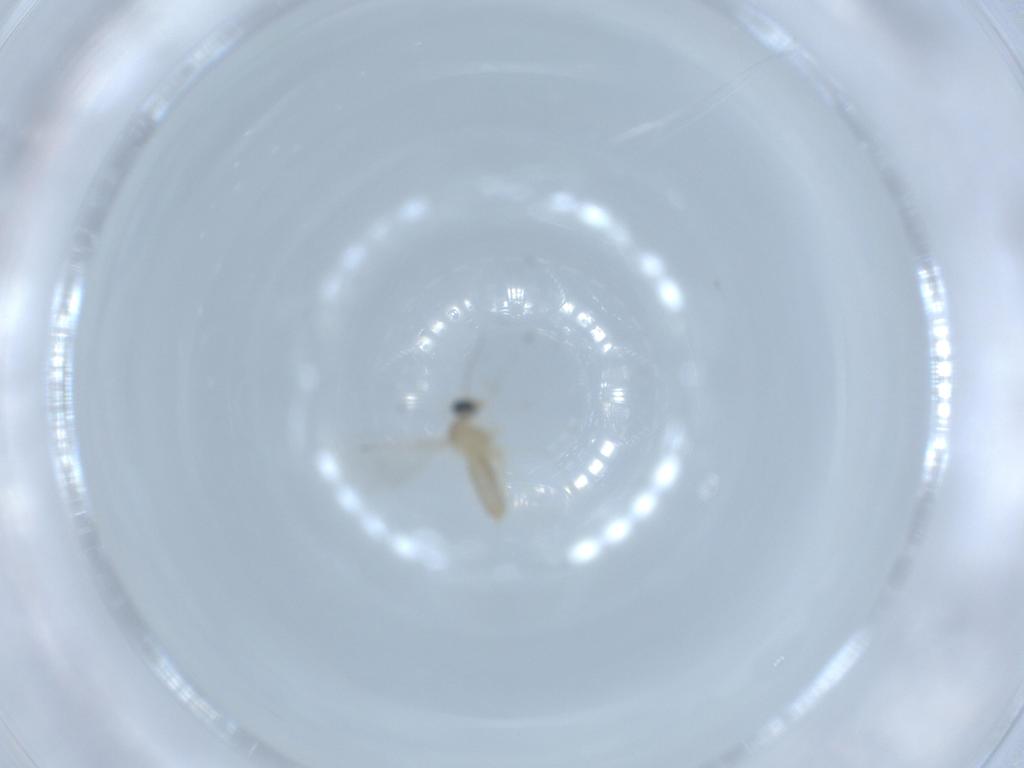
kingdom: Animalia
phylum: Arthropoda
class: Insecta
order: Diptera
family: Cecidomyiidae
